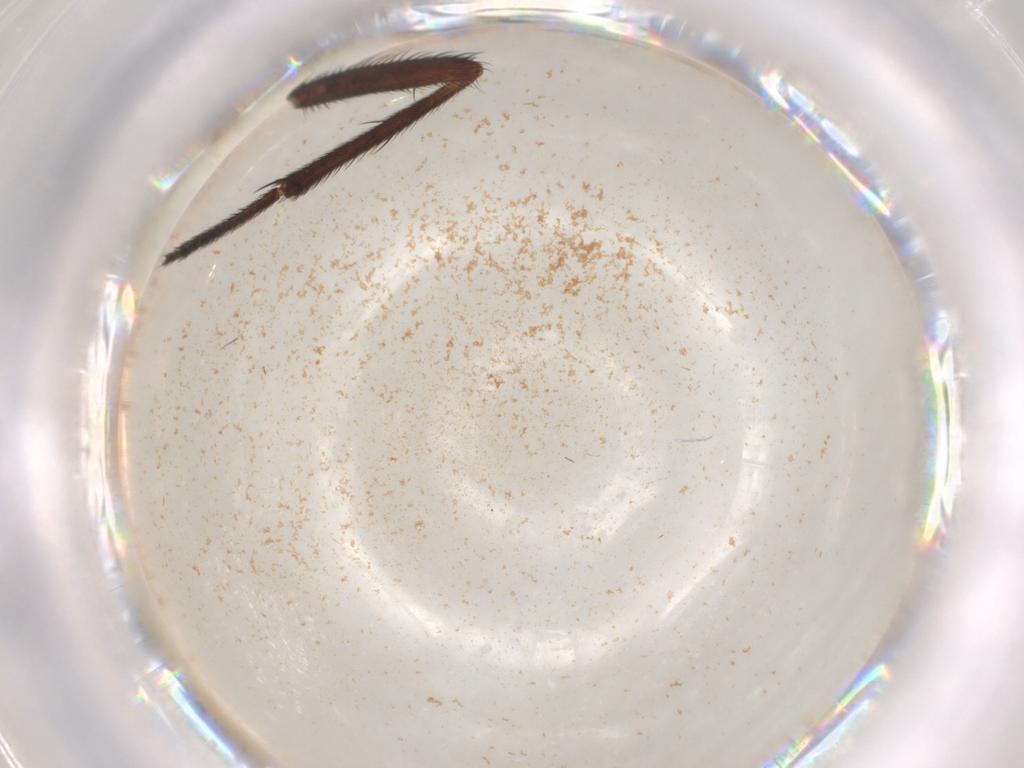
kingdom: Animalia
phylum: Arthropoda
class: Insecta
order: Diptera
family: Muscidae
